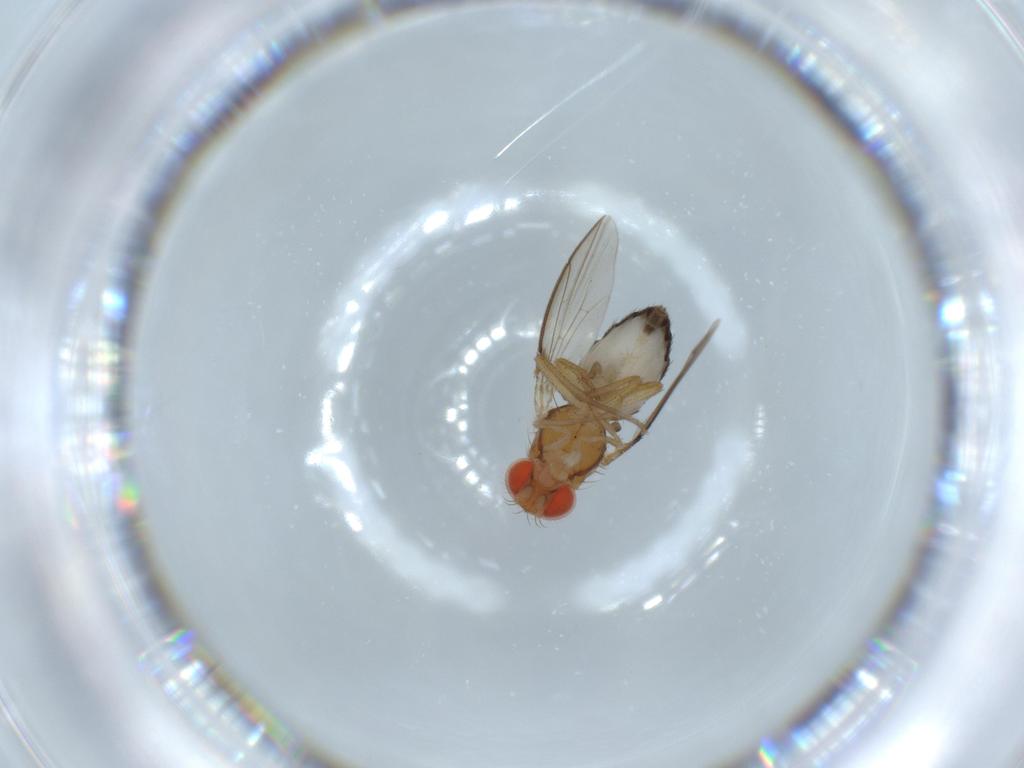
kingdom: Animalia
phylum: Arthropoda
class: Insecta
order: Diptera
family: Drosophilidae
